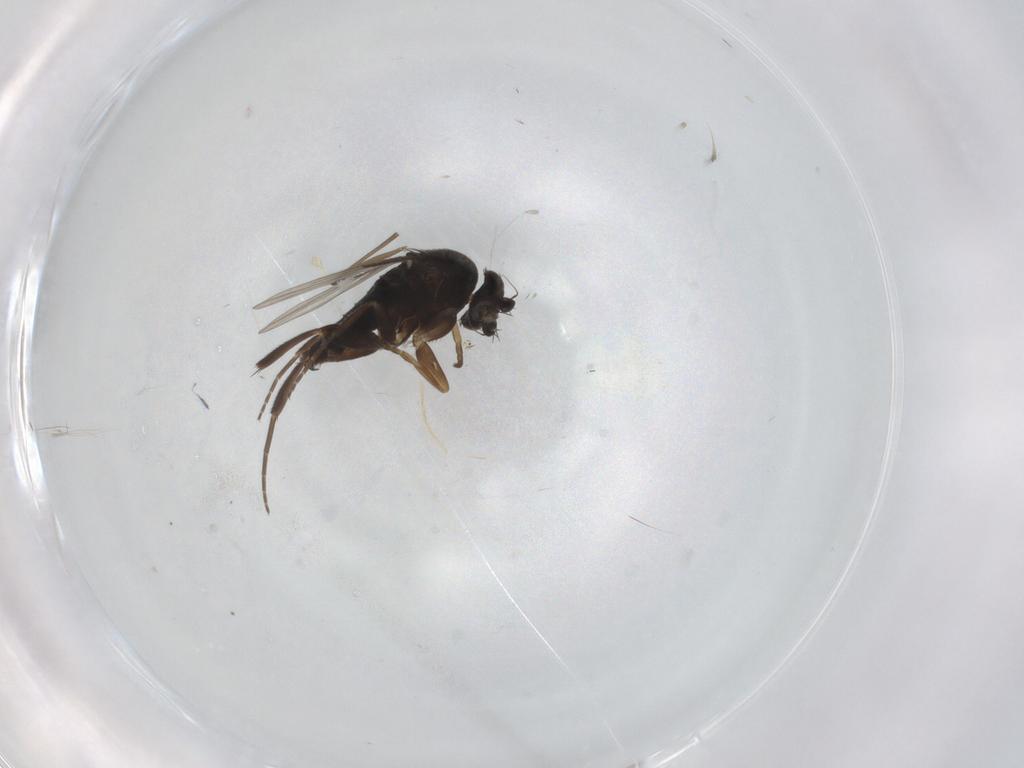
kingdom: Animalia
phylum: Arthropoda
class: Insecta
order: Diptera
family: Phoridae
